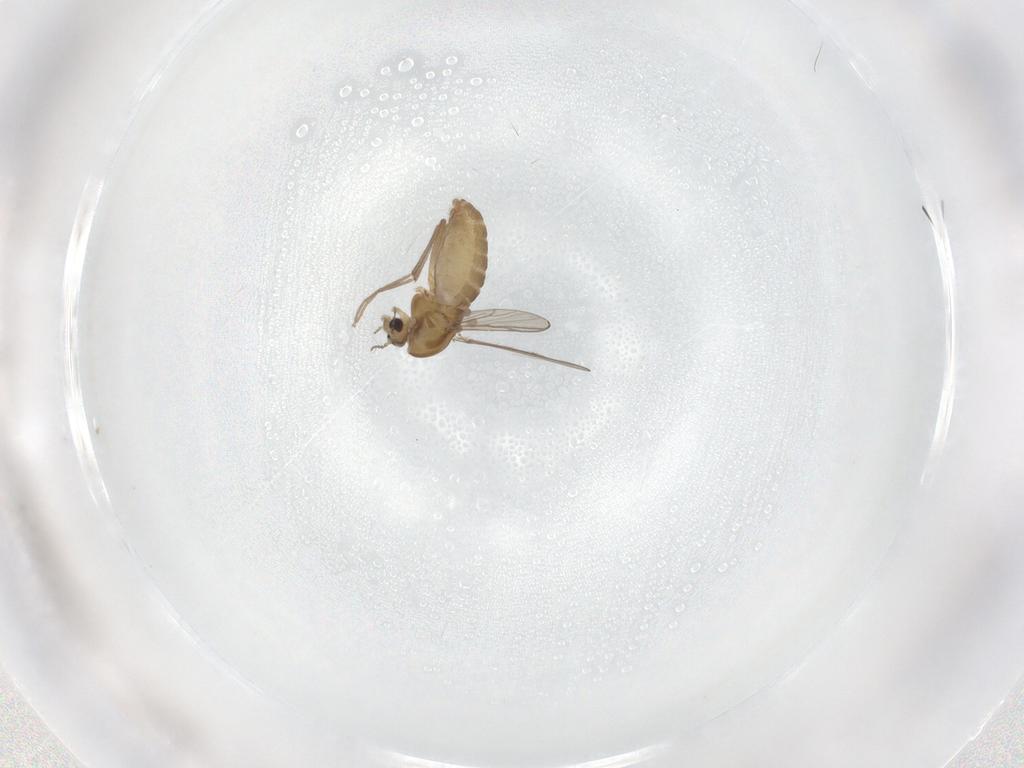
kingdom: Animalia
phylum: Arthropoda
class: Insecta
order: Diptera
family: Chironomidae
